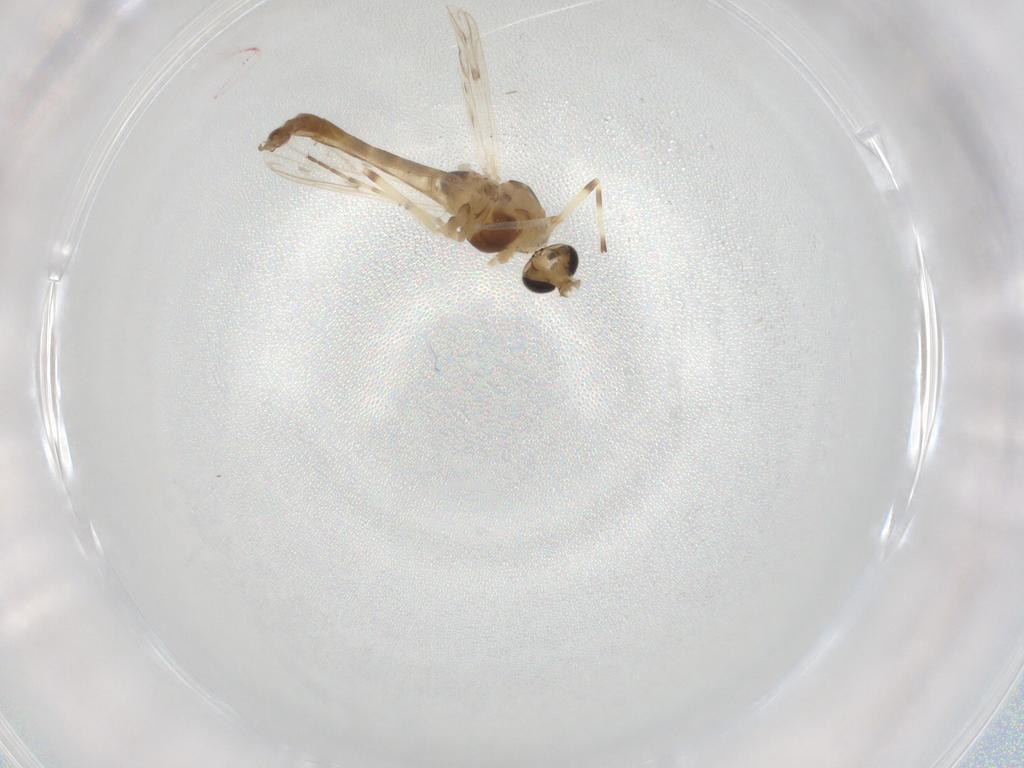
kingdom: Animalia
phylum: Arthropoda
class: Insecta
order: Diptera
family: Chironomidae
